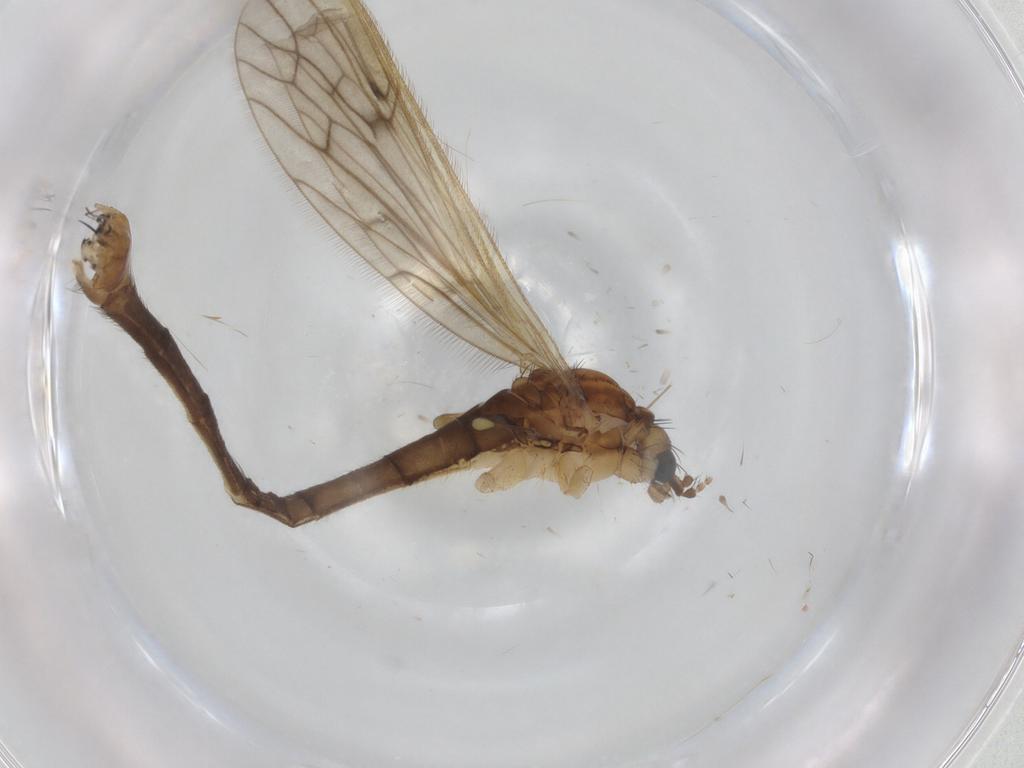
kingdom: Animalia
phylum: Arthropoda
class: Insecta
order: Diptera
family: Limoniidae
